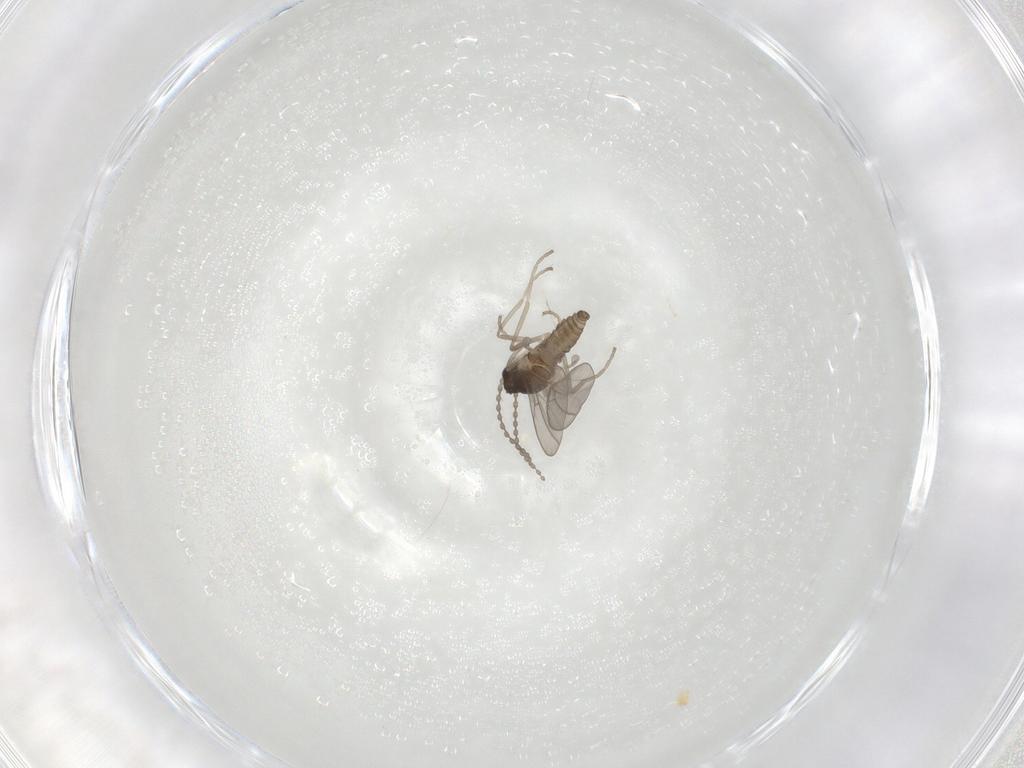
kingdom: Animalia
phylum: Arthropoda
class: Insecta
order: Diptera
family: Cecidomyiidae
